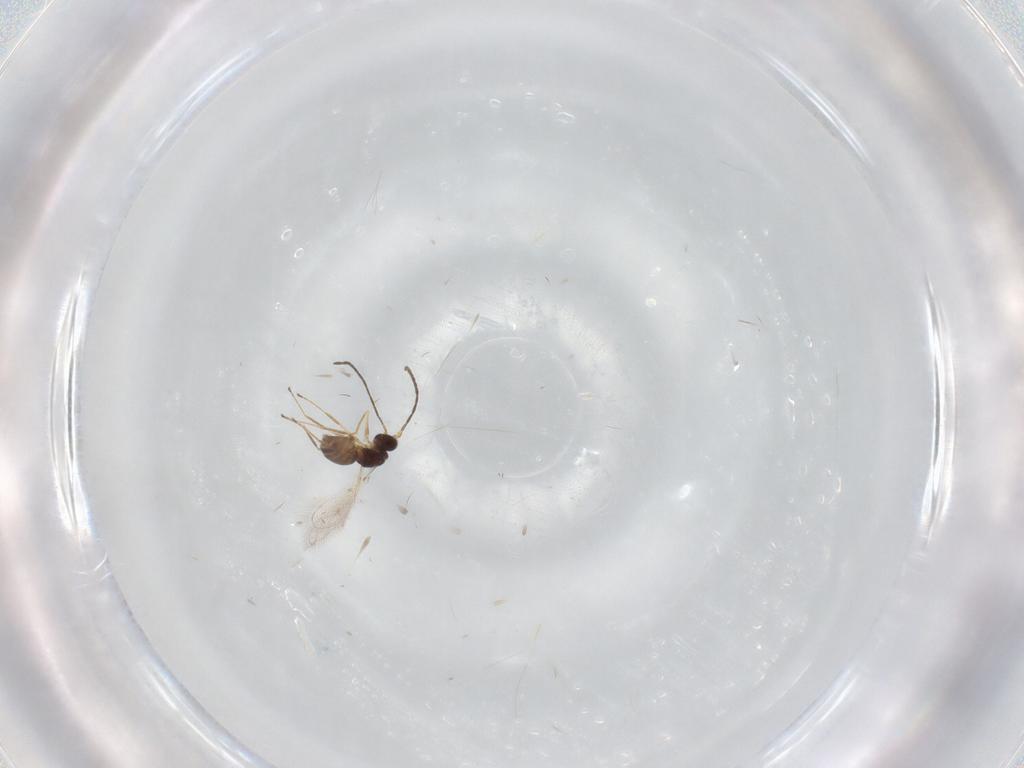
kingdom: Animalia
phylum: Arthropoda
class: Insecta
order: Hymenoptera
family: Mymaridae
